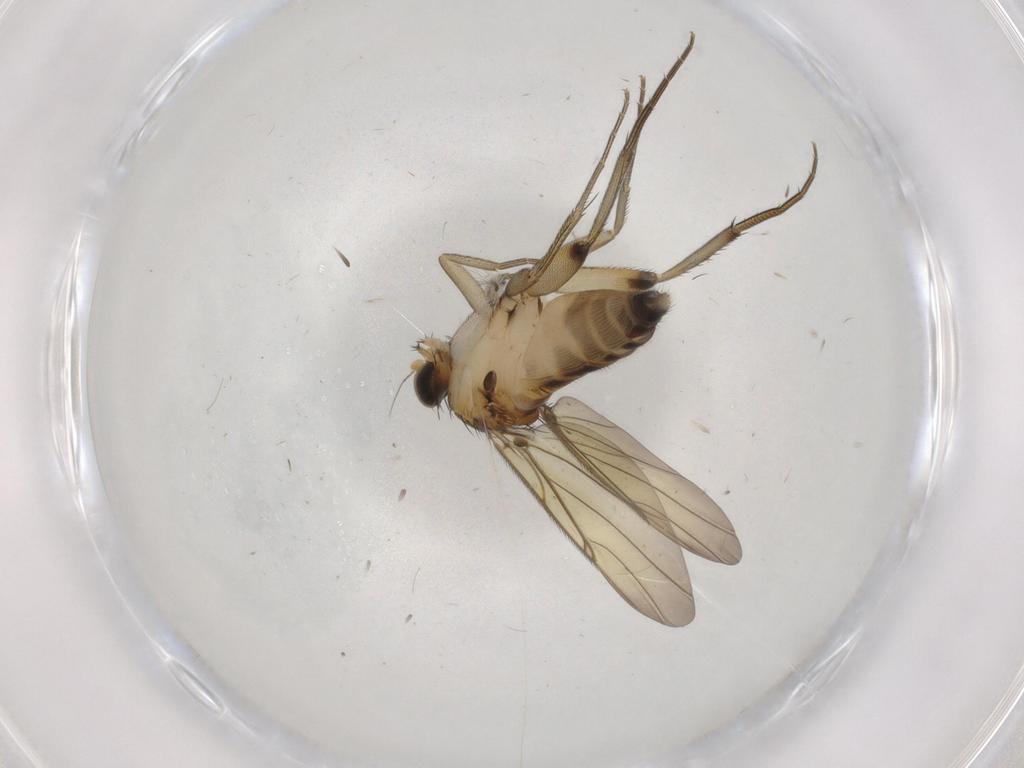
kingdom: Animalia
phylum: Arthropoda
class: Insecta
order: Diptera
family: Phoridae
